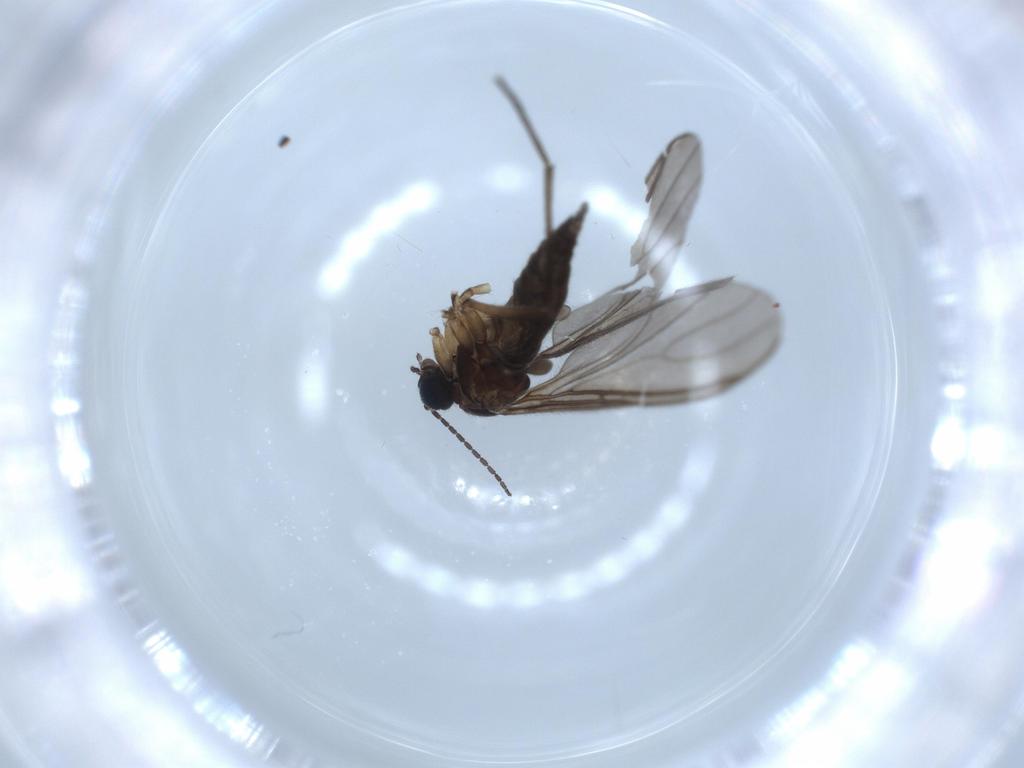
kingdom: Animalia
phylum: Arthropoda
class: Insecta
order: Diptera
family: Sciaridae
